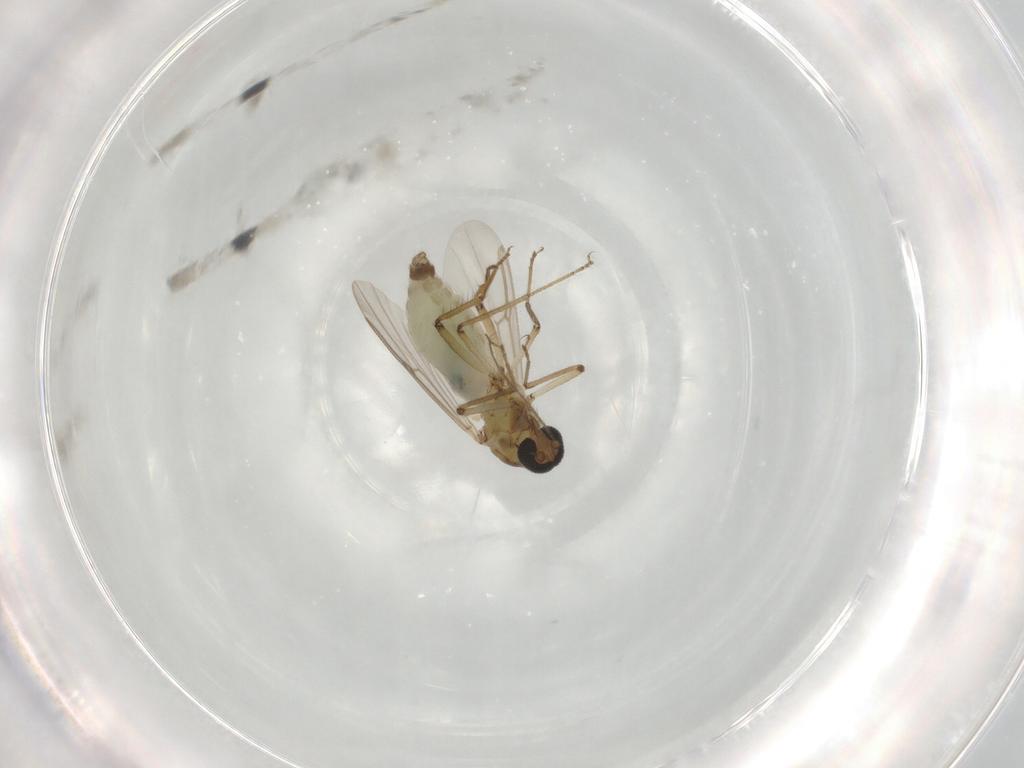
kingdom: Animalia
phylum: Arthropoda
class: Insecta
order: Diptera
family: Ceratopogonidae
